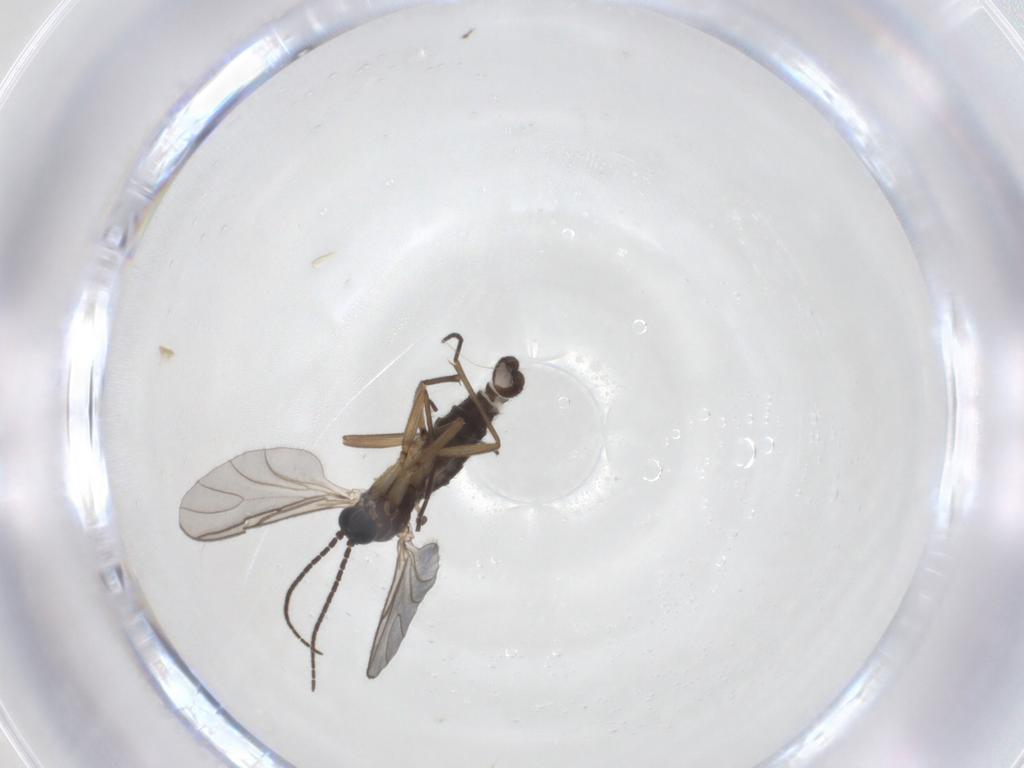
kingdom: Animalia
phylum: Arthropoda
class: Insecta
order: Diptera
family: Sciaridae
